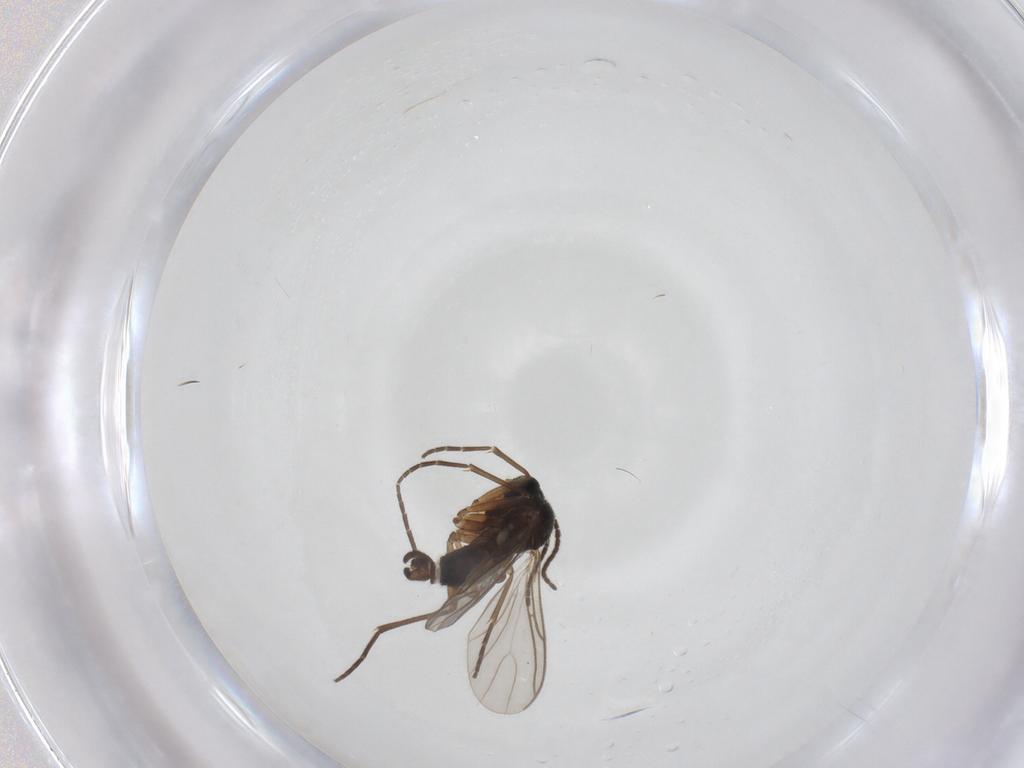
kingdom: Animalia
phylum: Arthropoda
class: Insecta
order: Diptera
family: Sciaridae
